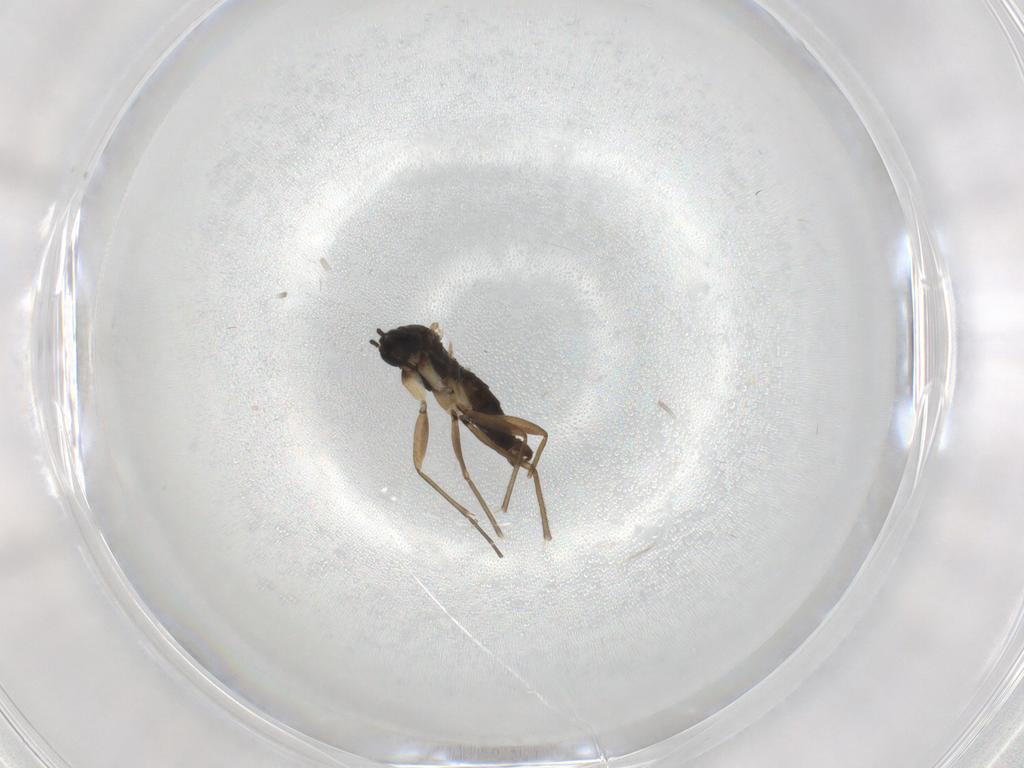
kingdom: Animalia
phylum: Arthropoda
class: Insecta
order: Diptera
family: Sciaridae
